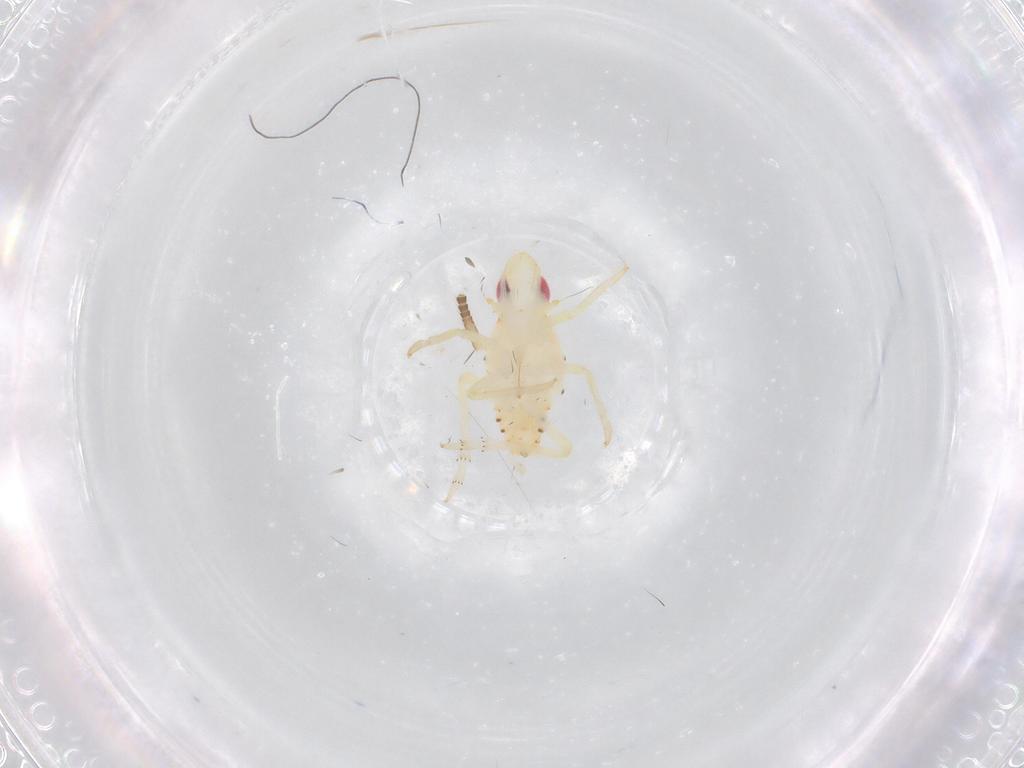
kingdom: Animalia
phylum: Arthropoda
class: Insecta
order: Hemiptera
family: Tropiduchidae
